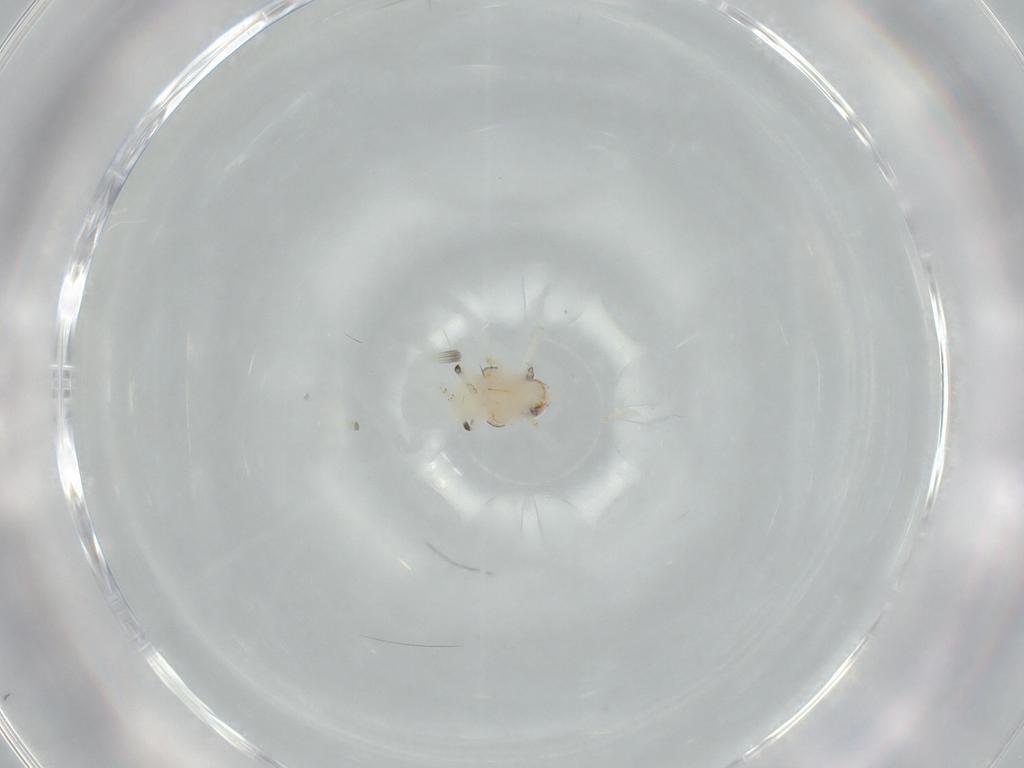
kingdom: Animalia
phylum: Arthropoda
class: Insecta
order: Hemiptera
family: Nogodinidae
